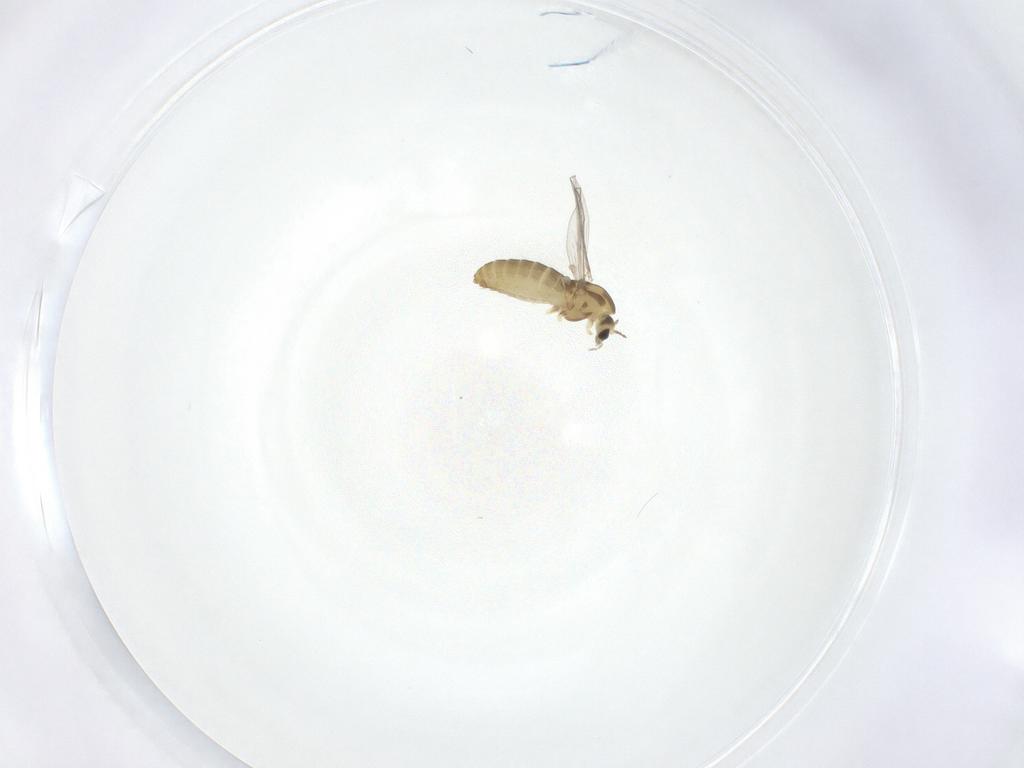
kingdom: Animalia
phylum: Arthropoda
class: Insecta
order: Diptera
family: Chironomidae
